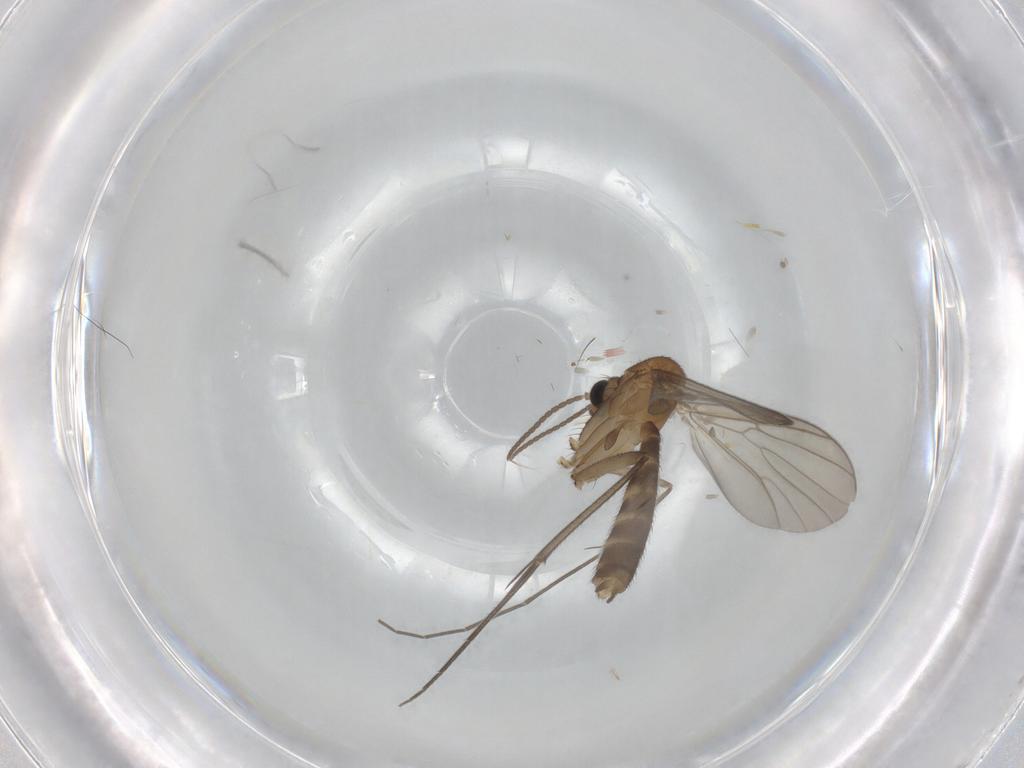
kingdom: Animalia
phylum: Arthropoda
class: Insecta
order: Diptera
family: Mycetophilidae
